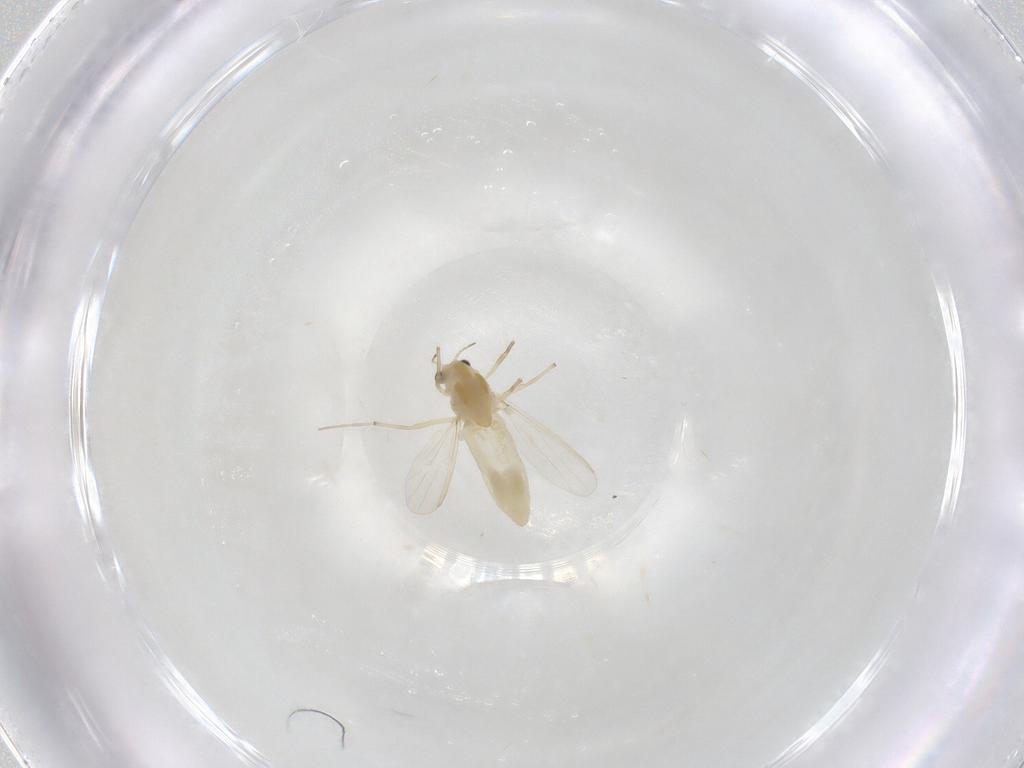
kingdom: Animalia
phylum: Arthropoda
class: Insecta
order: Diptera
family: Chironomidae
